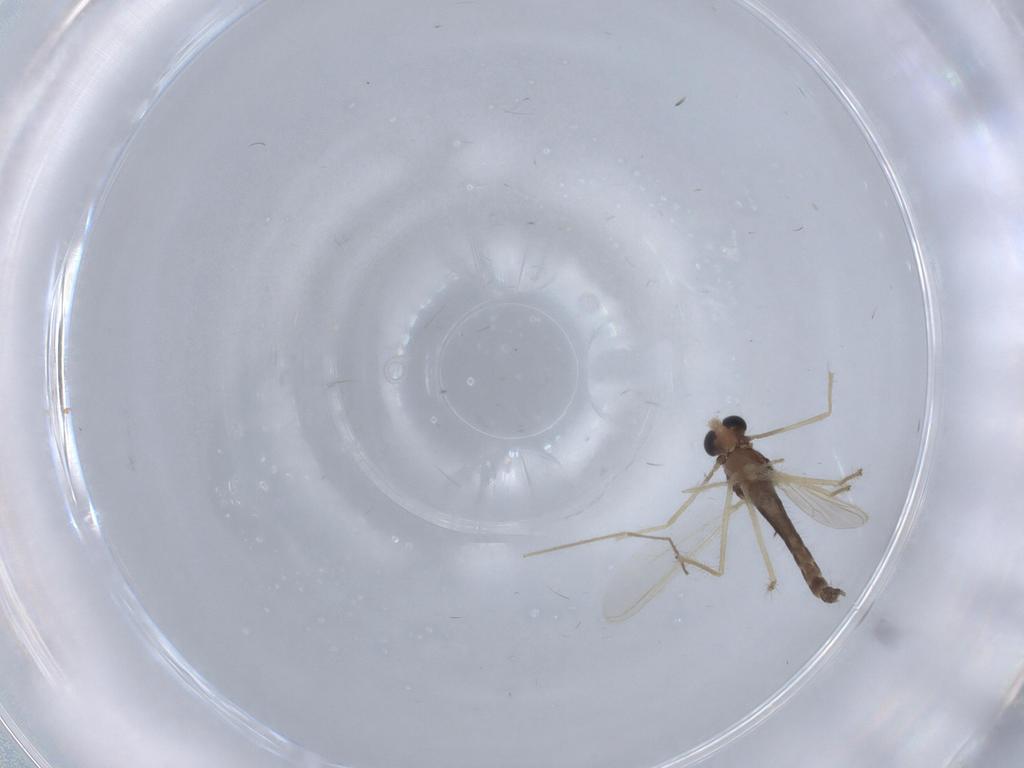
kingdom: Animalia
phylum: Arthropoda
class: Insecta
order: Diptera
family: Chironomidae
